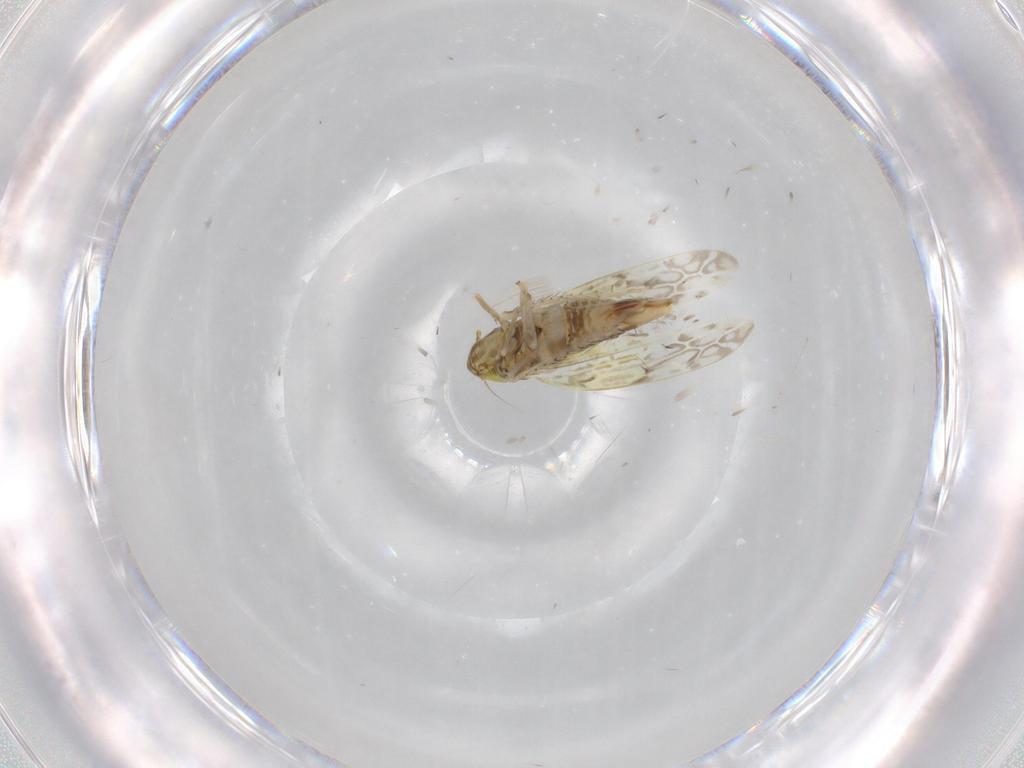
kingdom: Animalia
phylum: Arthropoda
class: Insecta
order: Hemiptera
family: Cicadellidae
